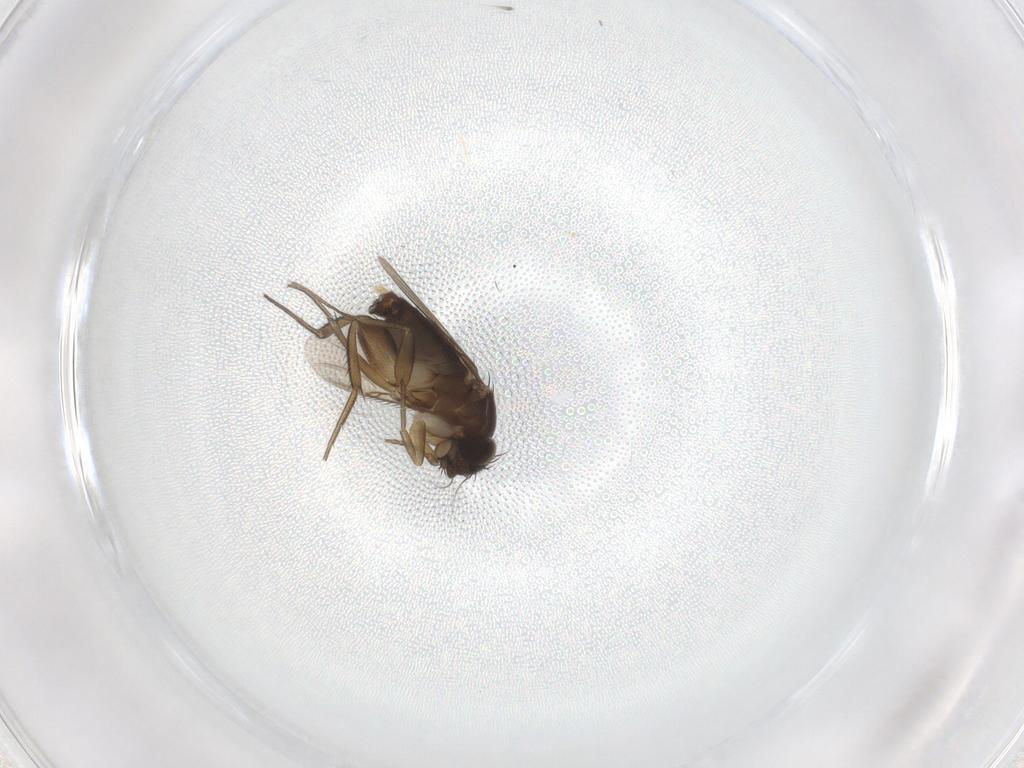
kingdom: Animalia
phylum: Arthropoda
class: Insecta
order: Diptera
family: Phoridae
